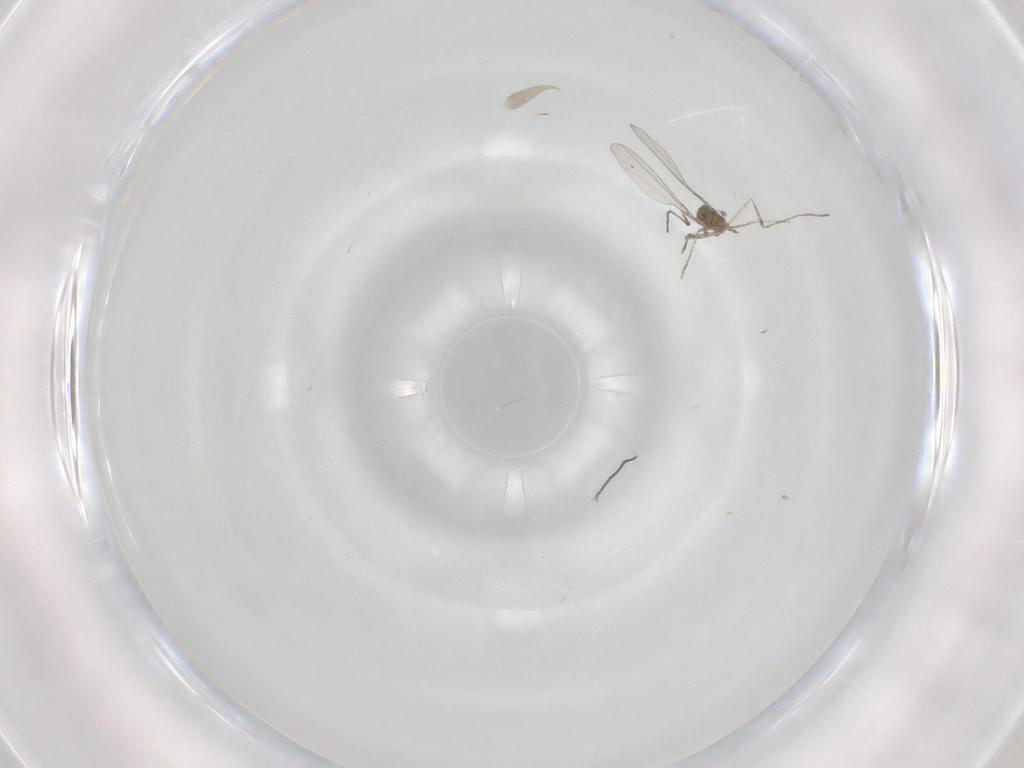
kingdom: Animalia
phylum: Arthropoda
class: Insecta
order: Diptera
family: Cecidomyiidae
